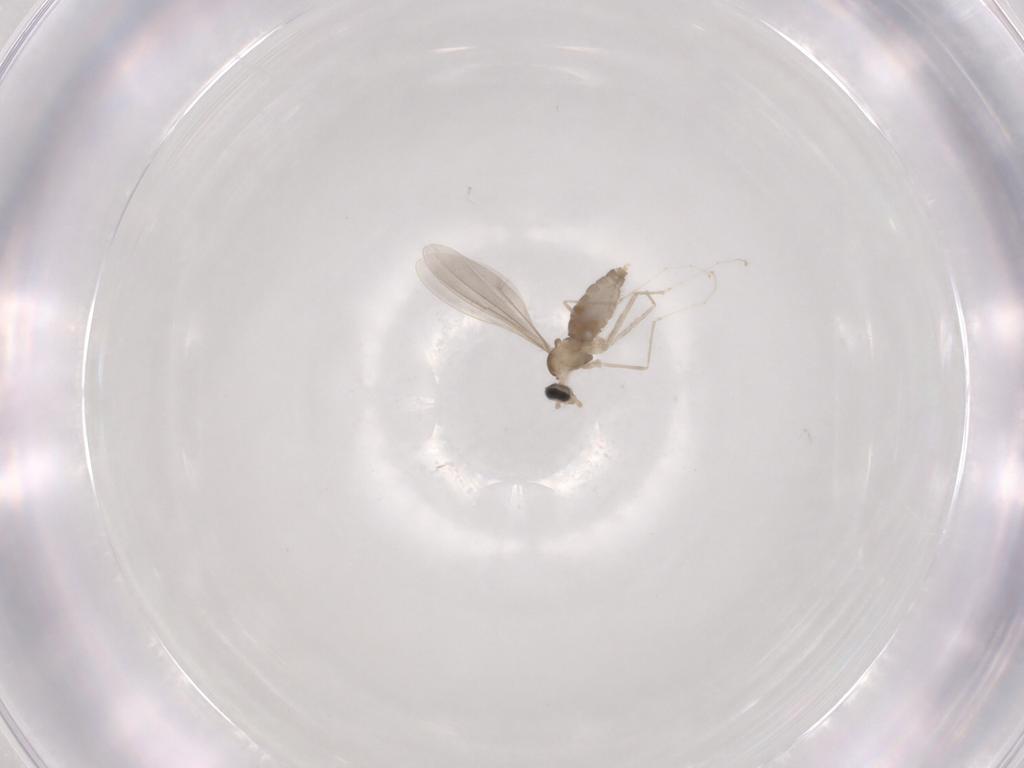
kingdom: Animalia
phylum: Arthropoda
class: Insecta
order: Diptera
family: Cecidomyiidae
